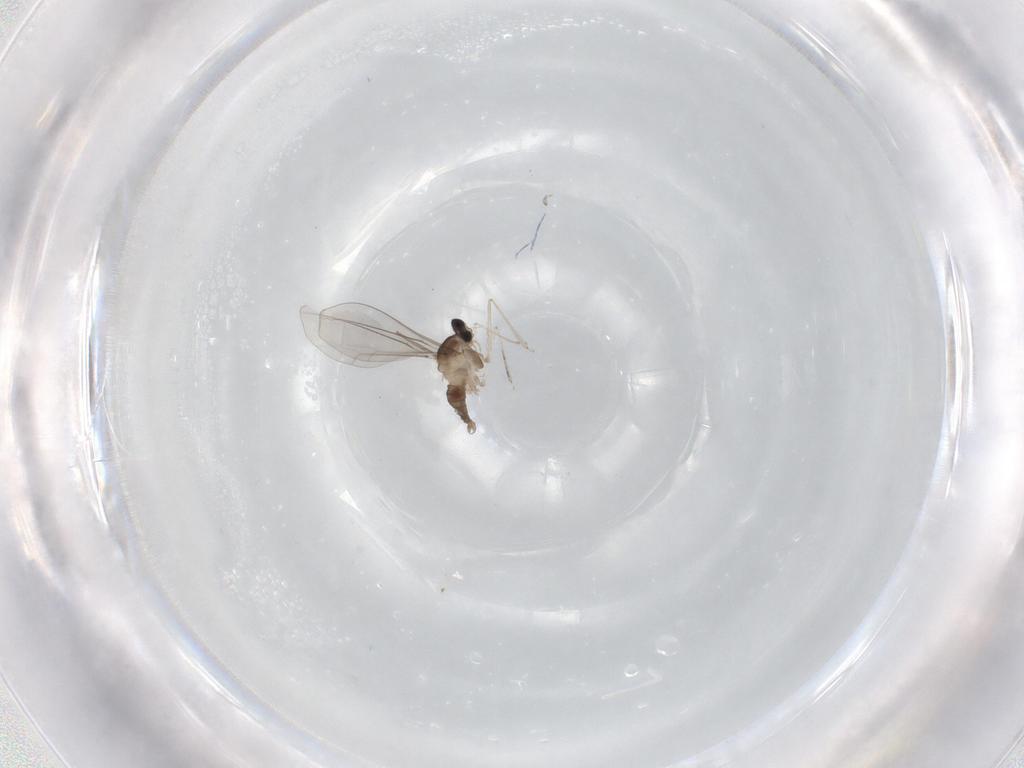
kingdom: Animalia
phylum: Arthropoda
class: Insecta
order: Diptera
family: Cecidomyiidae
